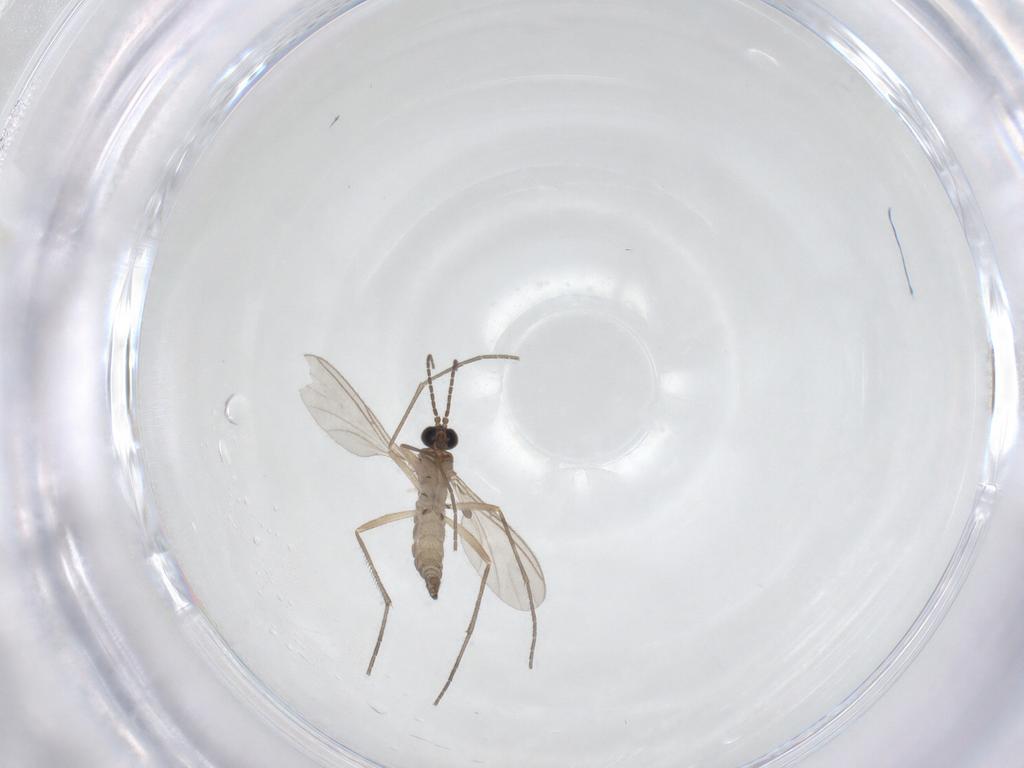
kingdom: Animalia
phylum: Arthropoda
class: Insecta
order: Diptera
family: Sciaridae
